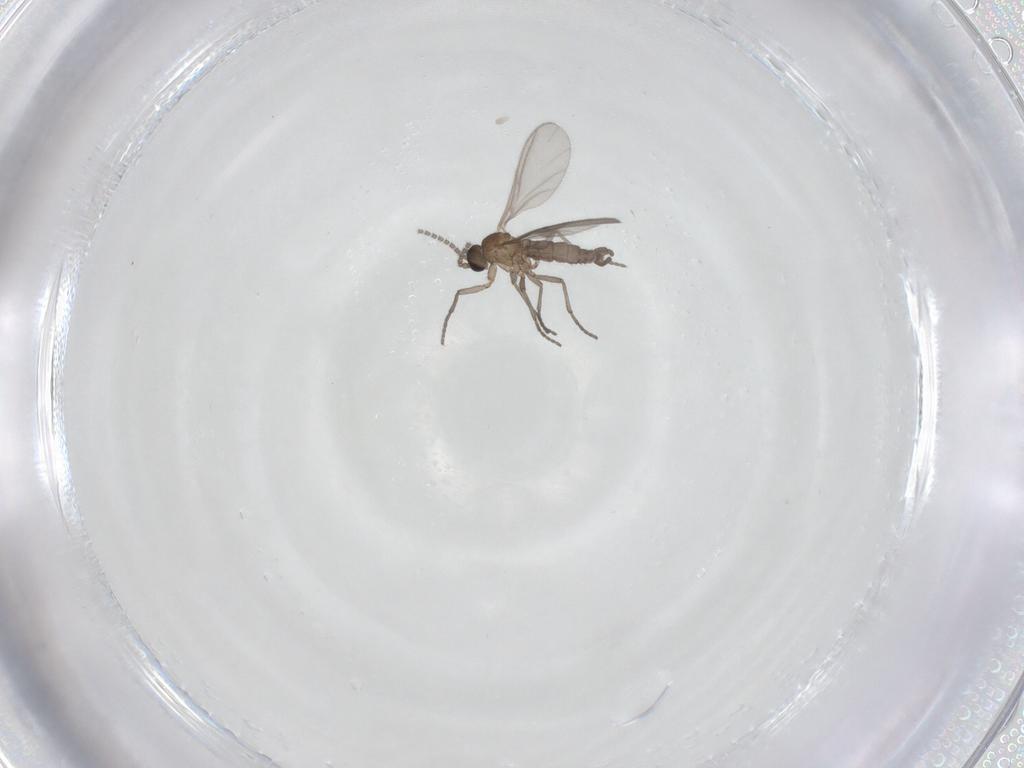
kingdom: Animalia
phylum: Arthropoda
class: Insecta
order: Diptera
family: Sciaridae
